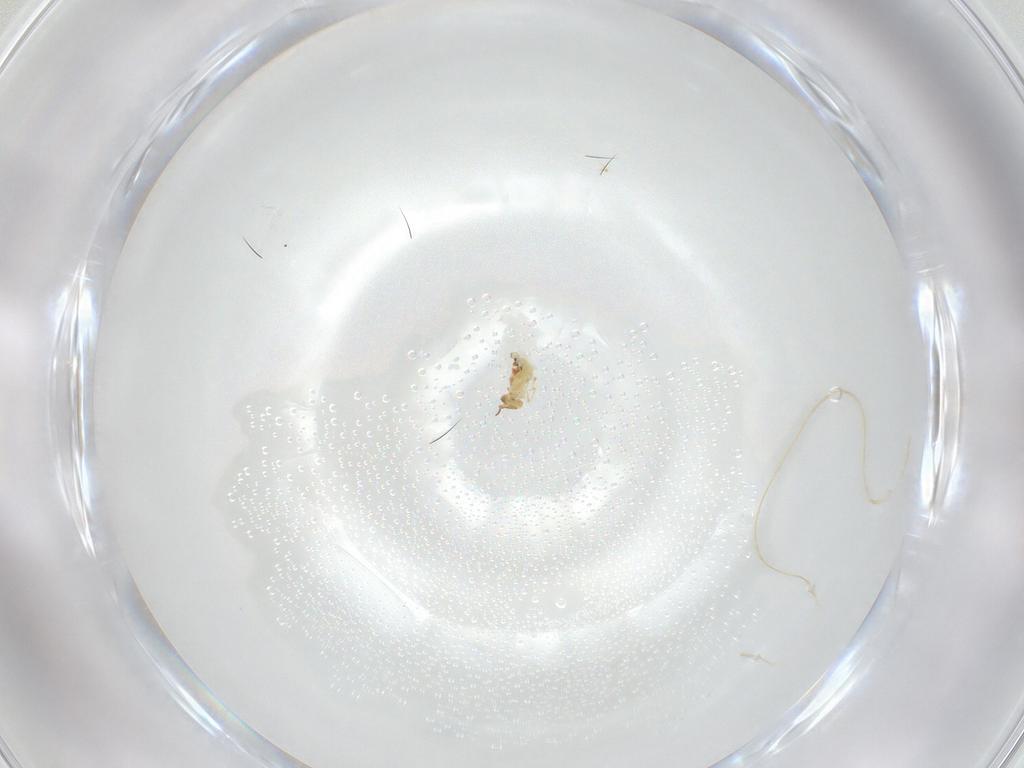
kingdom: Animalia
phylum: Arthropoda
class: Collembola
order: Symphypleona
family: Bourletiellidae
